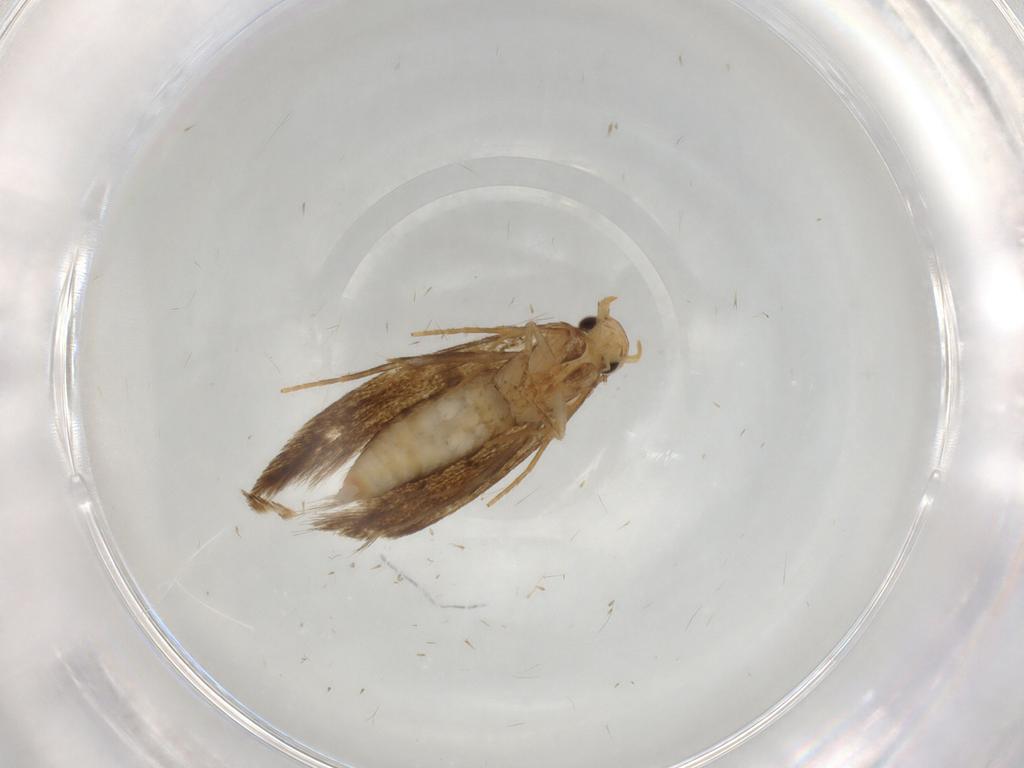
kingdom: Animalia
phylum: Arthropoda
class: Insecta
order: Lepidoptera
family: Tineidae
